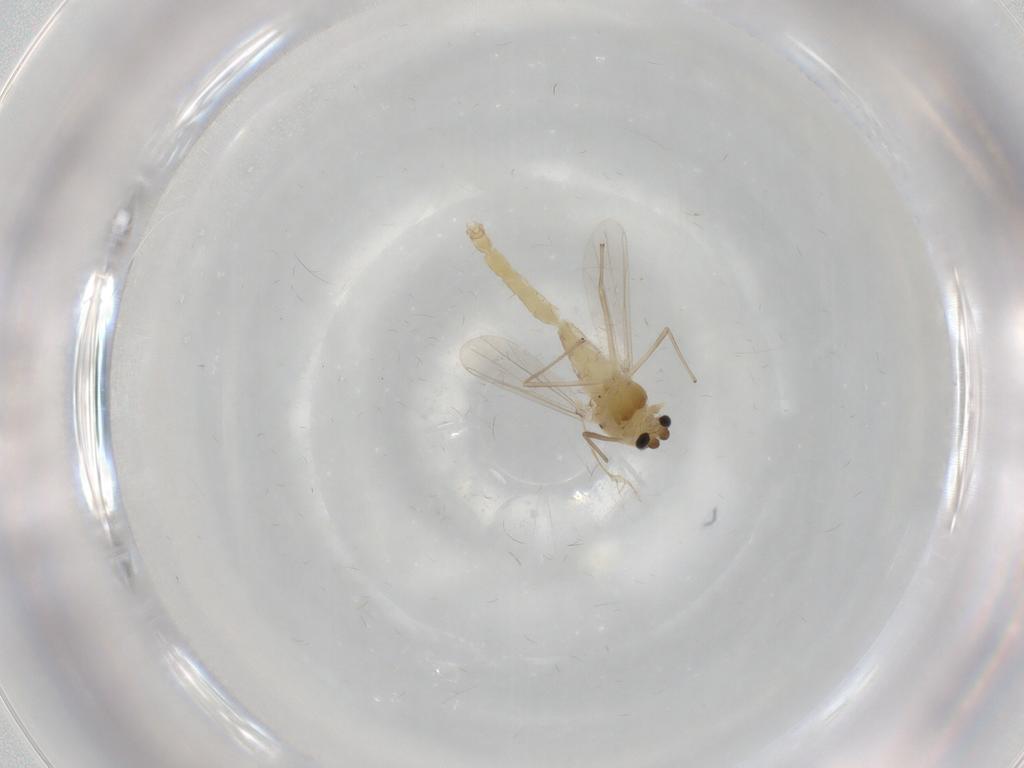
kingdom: Animalia
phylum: Arthropoda
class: Insecta
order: Diptera
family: Chironomidae
